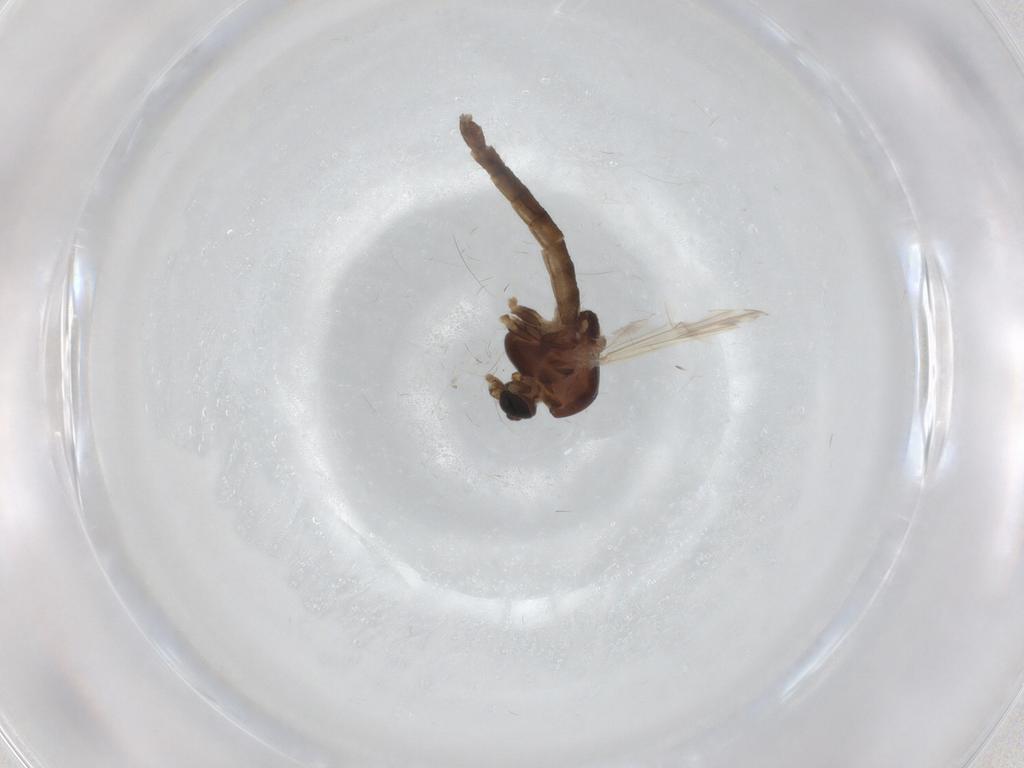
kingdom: Animalia
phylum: Arthropoda
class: Insecta
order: Diptera
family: Chironomidae
